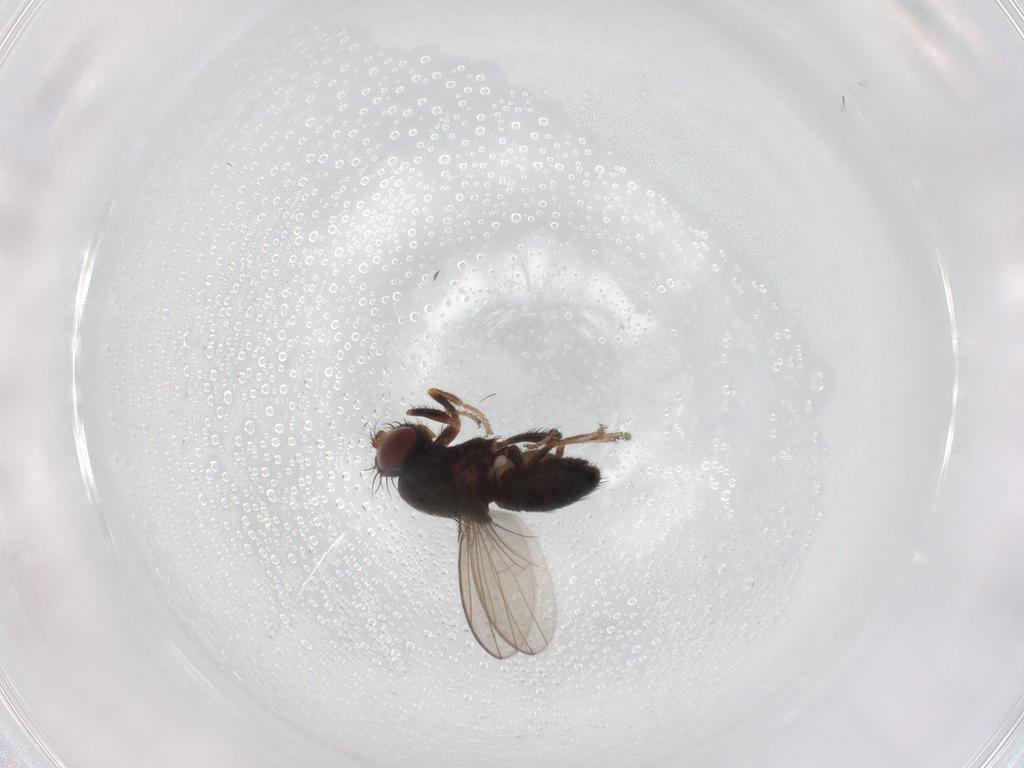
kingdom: Animalia
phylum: Arthropoda
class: Insecta
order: Diptera
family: Ephydridae
